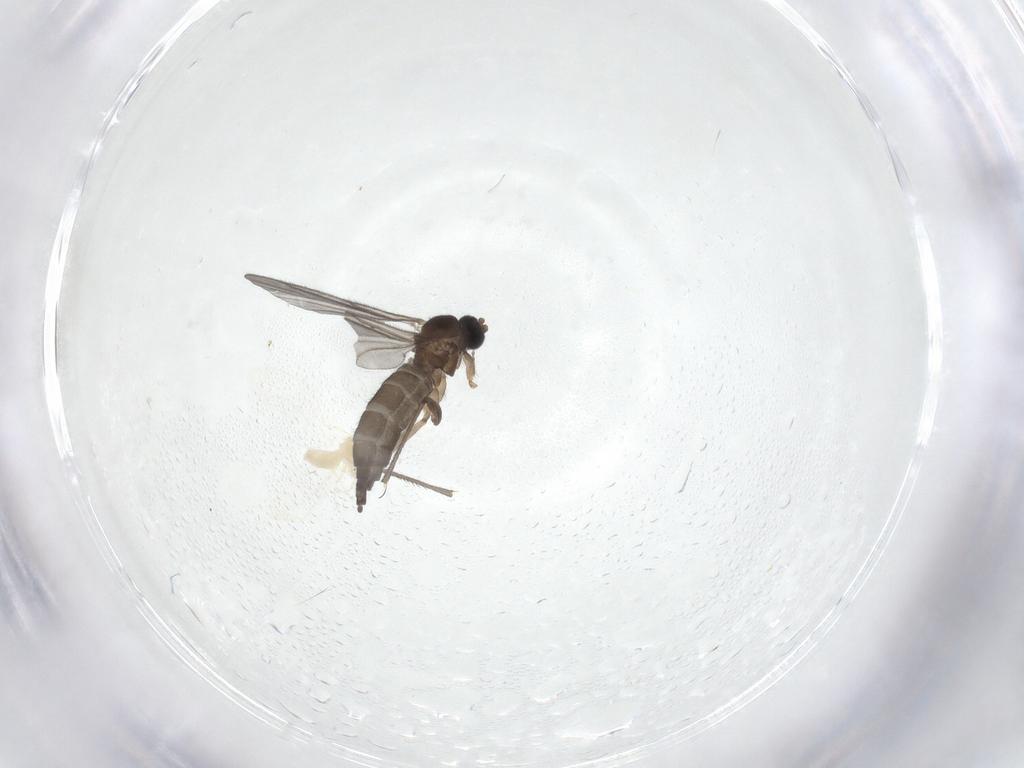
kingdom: Animalia
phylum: Arthropoda
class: Insecta
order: Diptera
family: Sciaridae
